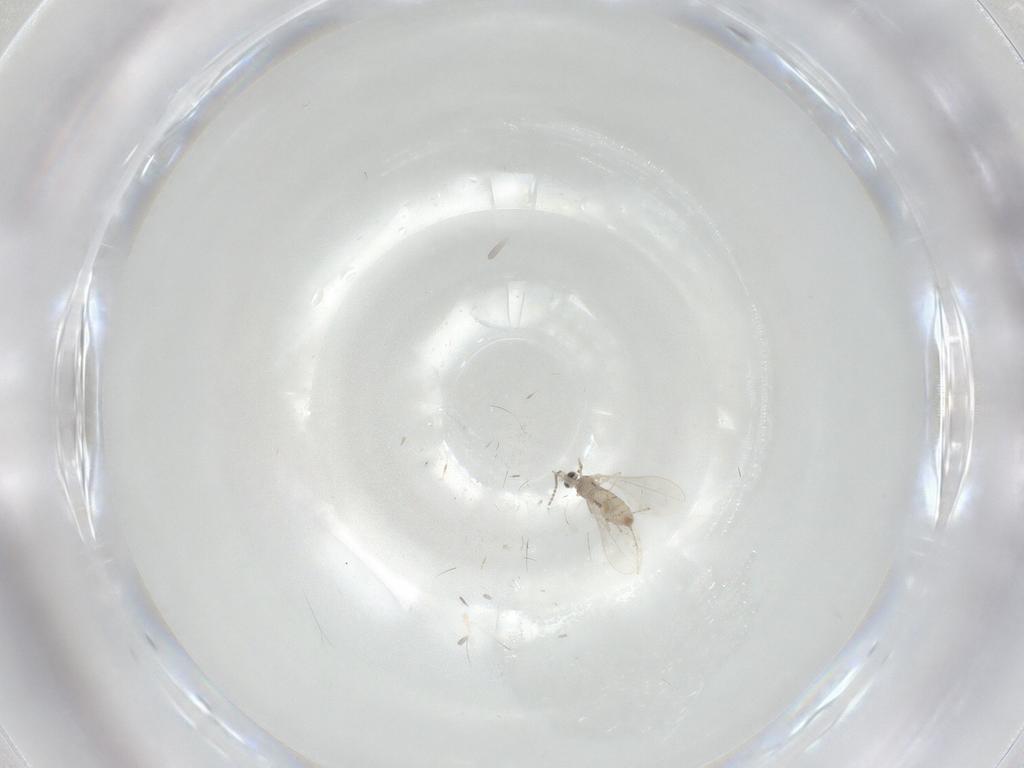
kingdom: Animalia
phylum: Arthropoda
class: Insecta
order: Diptera
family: Cecidomyiidae
